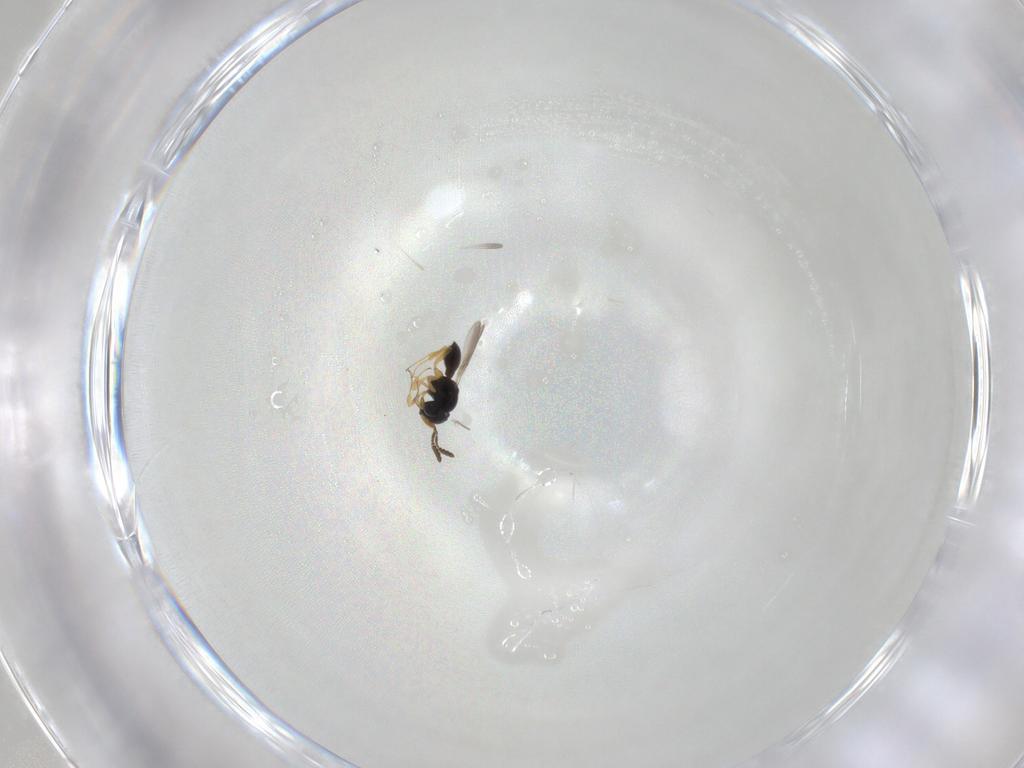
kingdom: Animalia
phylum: Arthropoda
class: Insecta
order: Hymenoptera
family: Scelionidae
